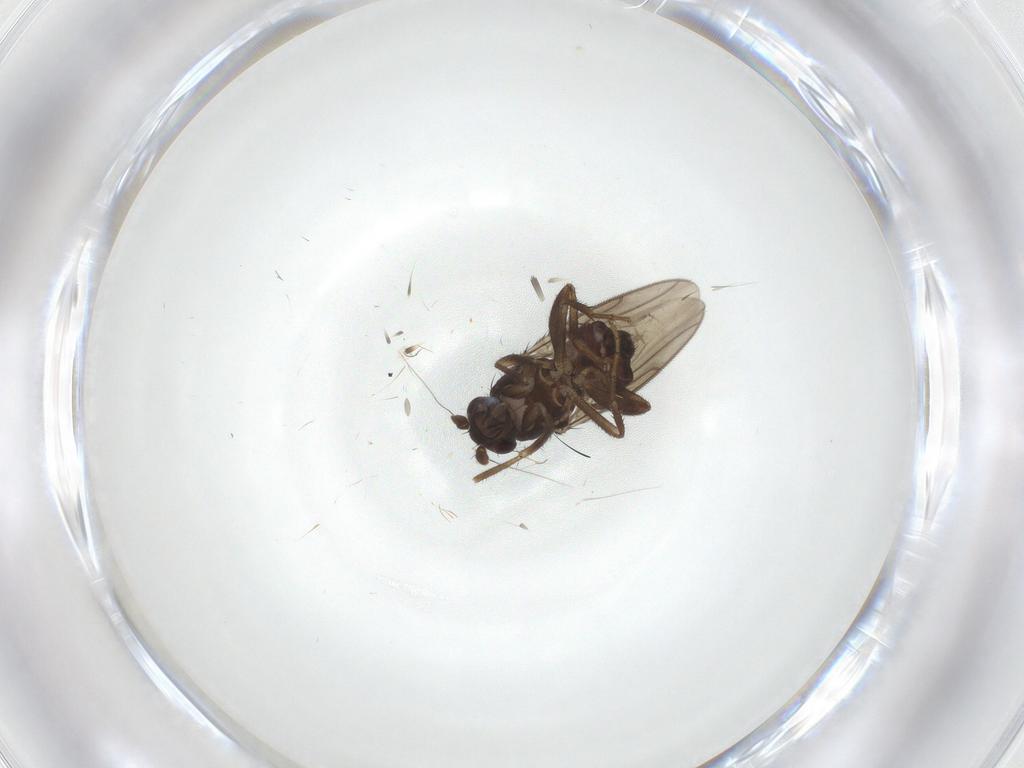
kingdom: Animalia
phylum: Arthropoda
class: Insecta
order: Diptera
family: Sphaeroceridae
